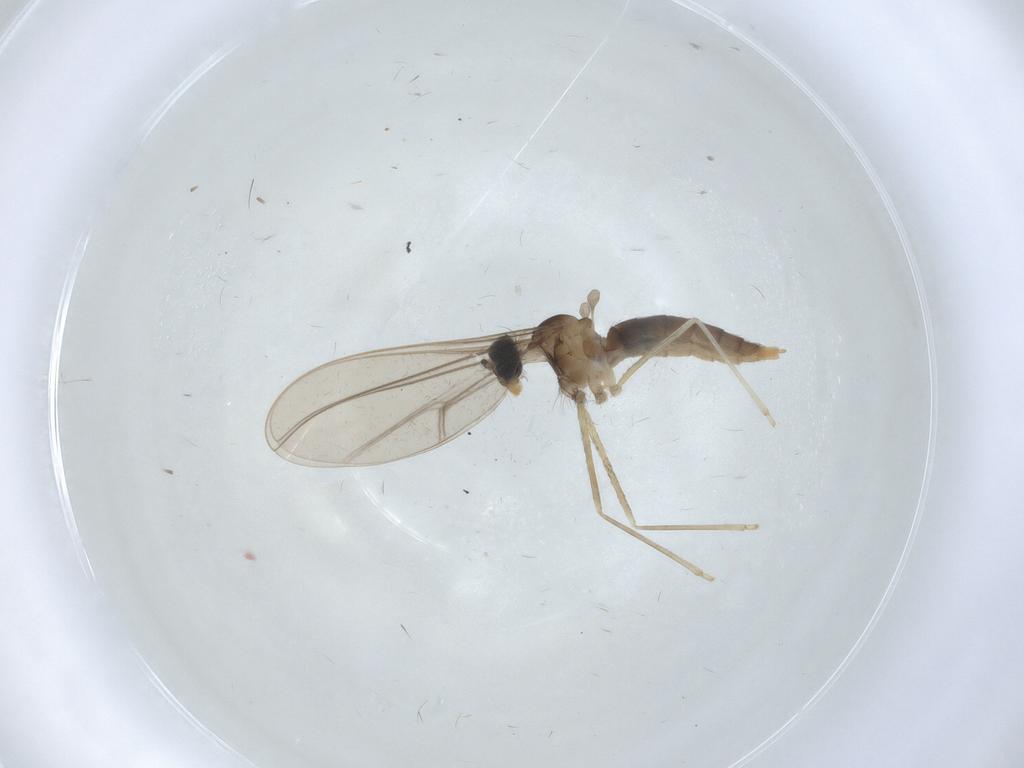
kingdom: Animalia
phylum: Arthropoda
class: Insecta
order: Diptera
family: Cecidomyiidae
